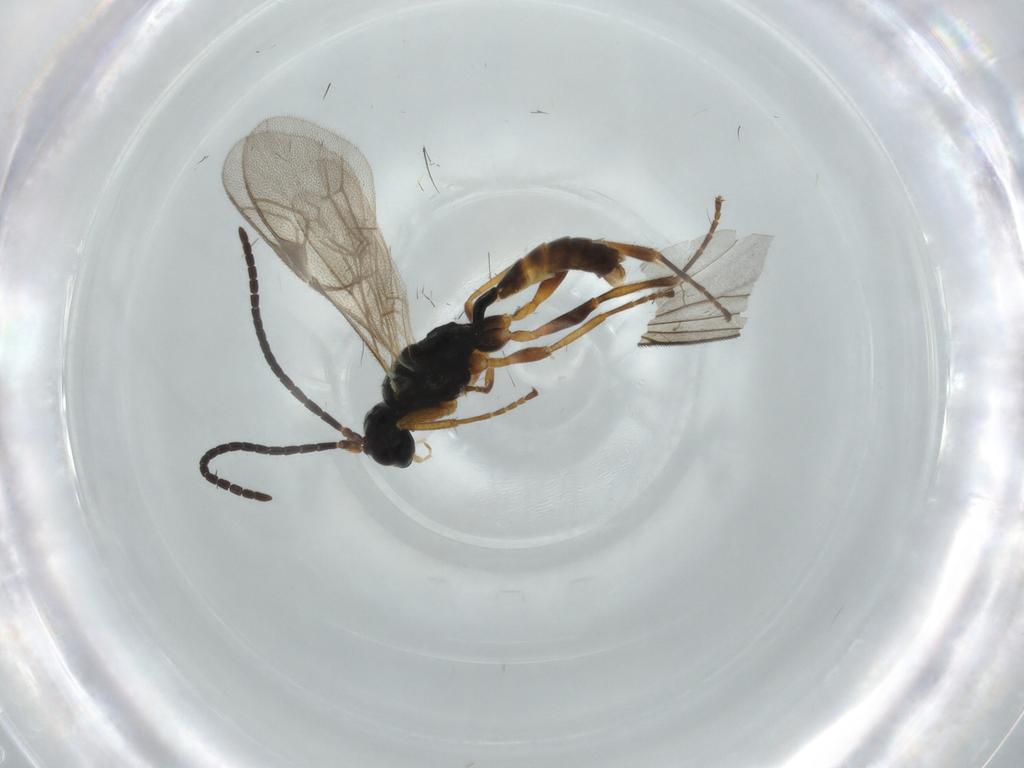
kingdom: Animalia
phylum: Arthropoda
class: Insecta
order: Hymenoptera
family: Ichneumonidae
